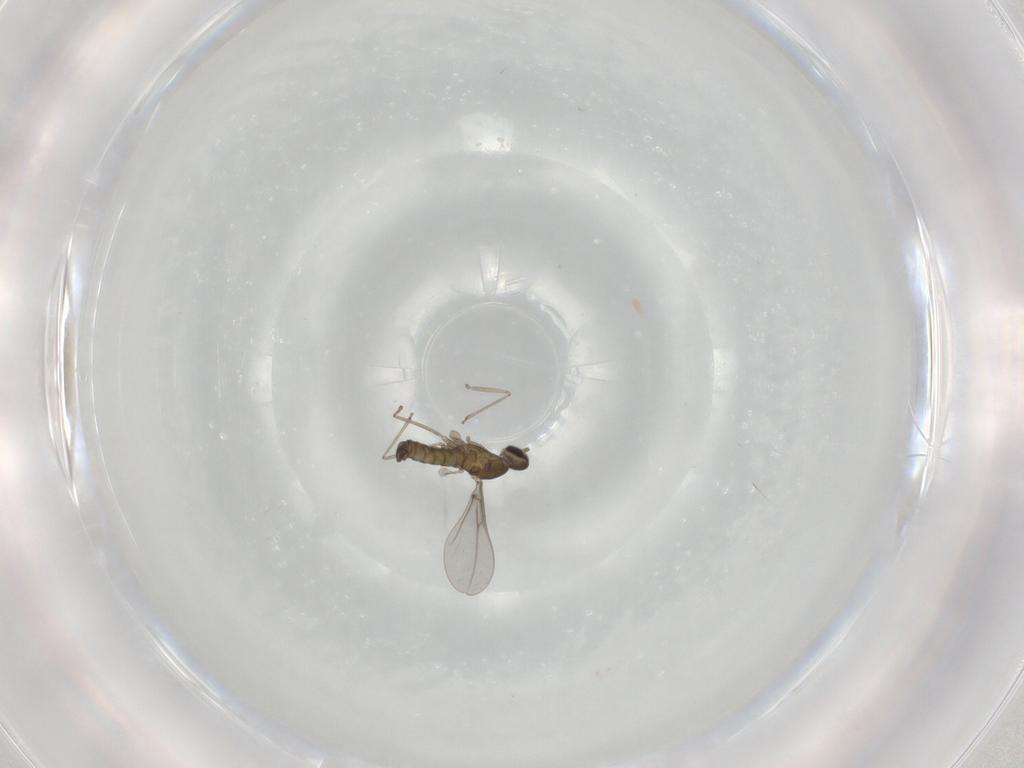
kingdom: Animalia
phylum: Arthropoda
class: Insecta
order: Diptera
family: Cecidomyiidae
